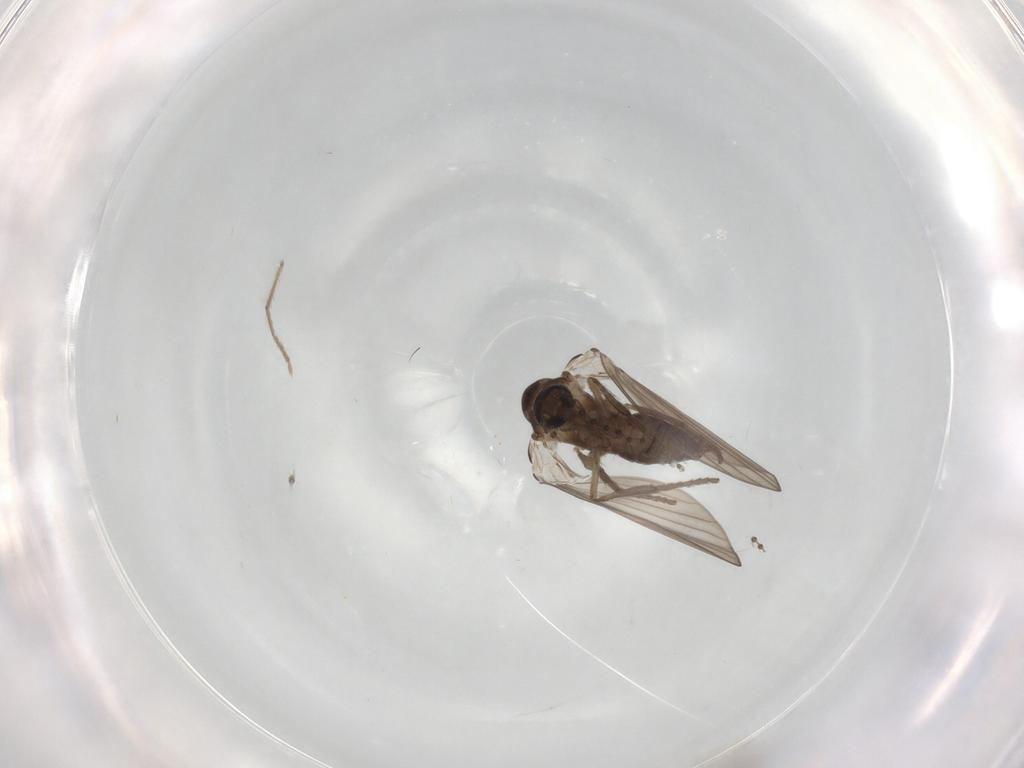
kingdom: Animalia
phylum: Arthropoda
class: Insecta
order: Diptera
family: Psychodidae
